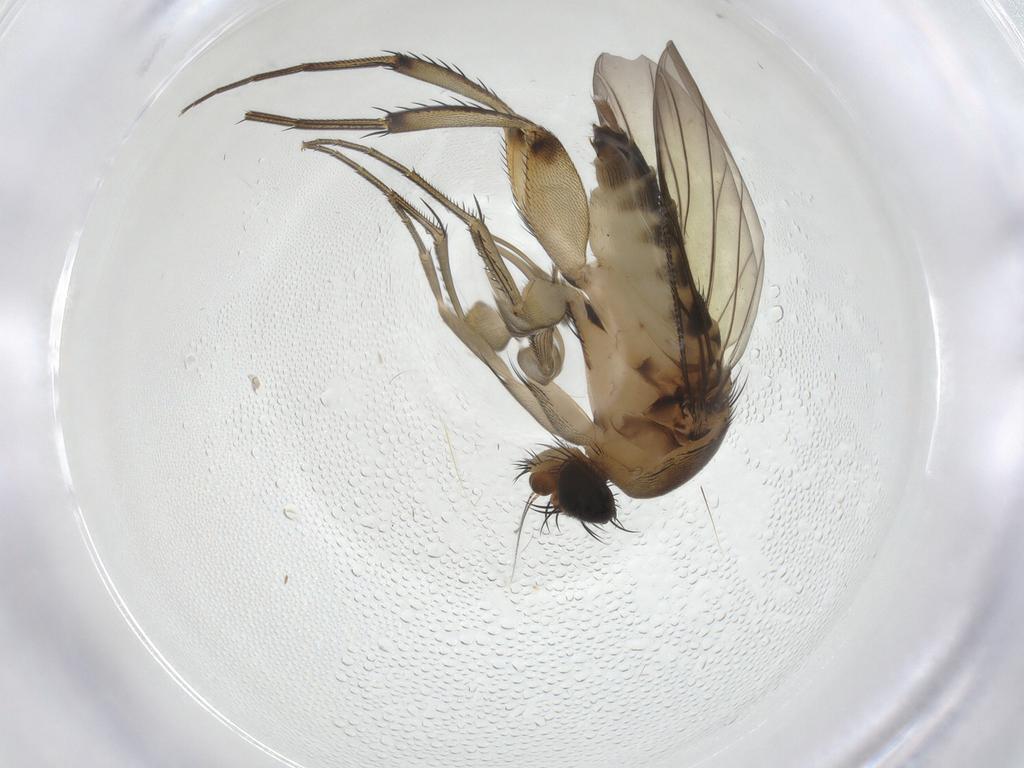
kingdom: Animalia
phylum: Arthropoda
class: Insecta
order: Diptera
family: Phoridae
